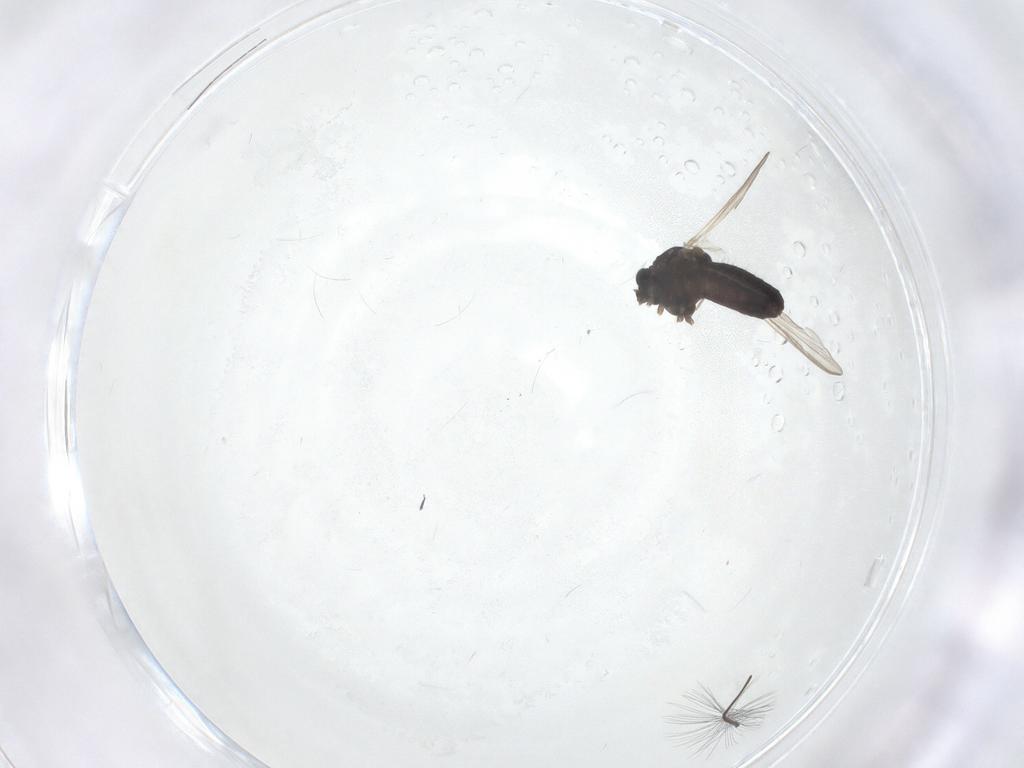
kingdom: Animalia
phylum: Arthropoda
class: Insecta
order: Diptera
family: Chironomidae
